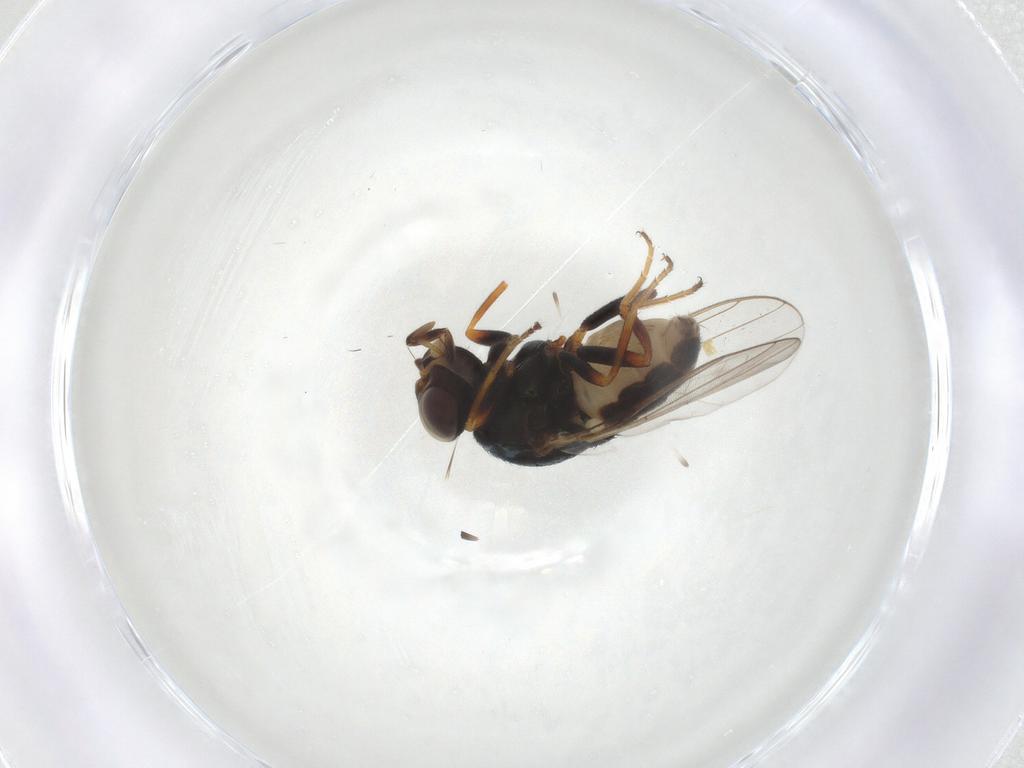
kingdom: Animalia
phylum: Arthropoda
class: Insecta
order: Diptera
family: Chloropidae
